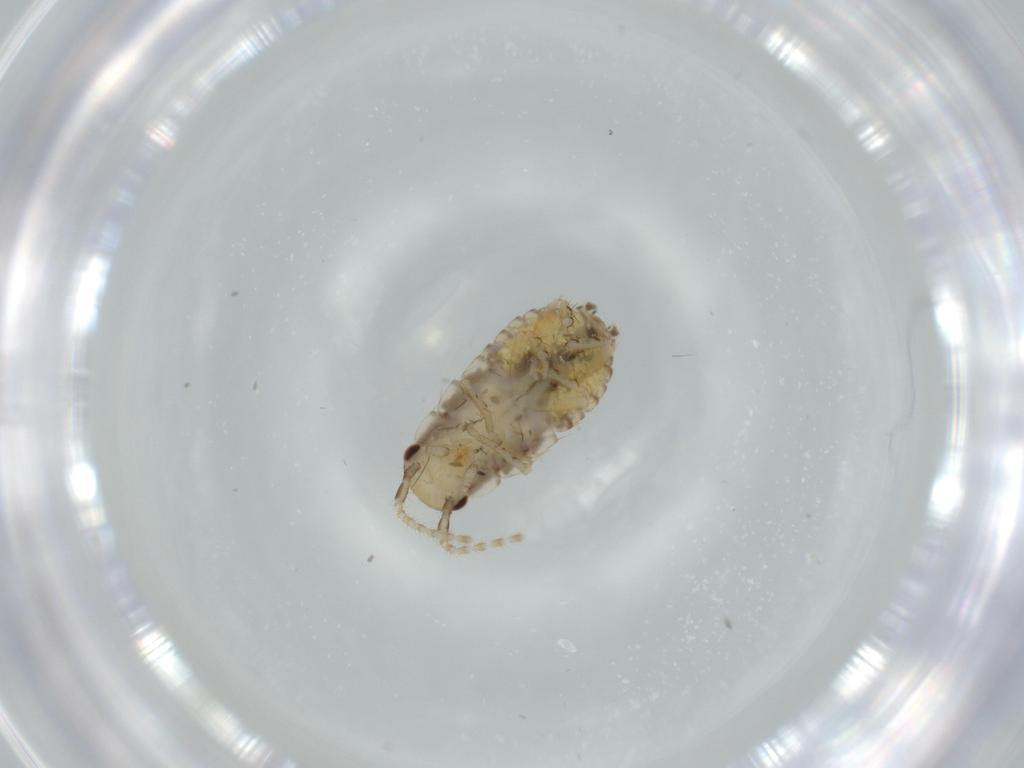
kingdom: Animalia
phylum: Arthropoda
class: Insecta
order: Blattodea
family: Ectobiidae
